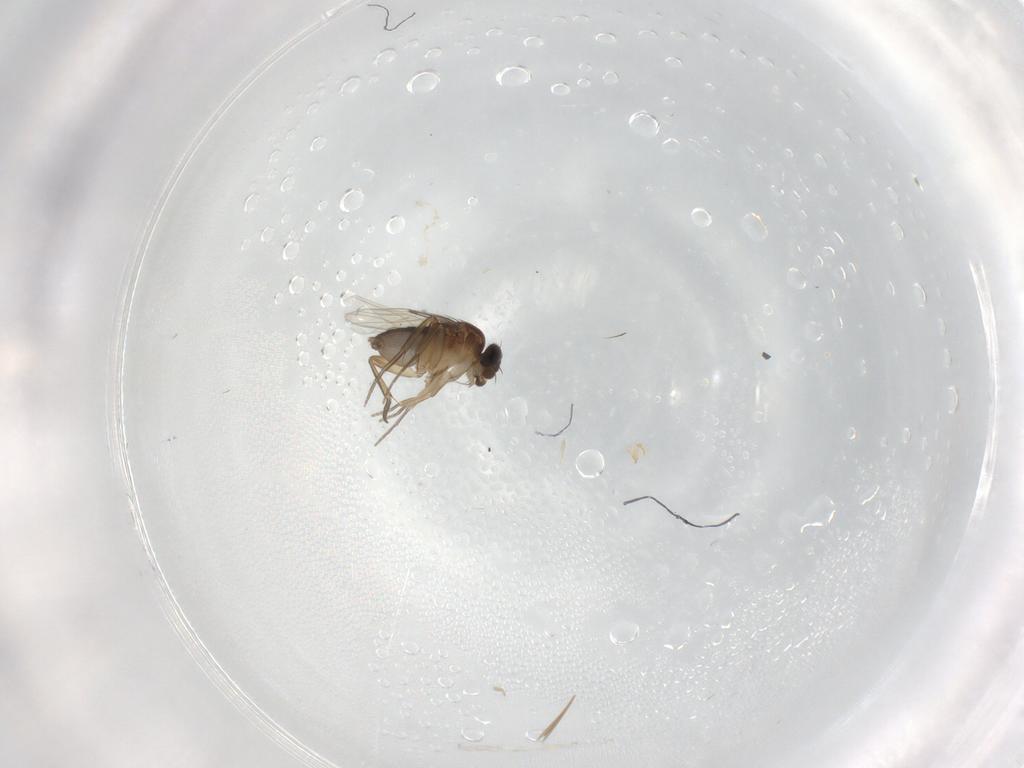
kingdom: Animalia
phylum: Arthropoda
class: Insecta
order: Diptera
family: Phoridae
